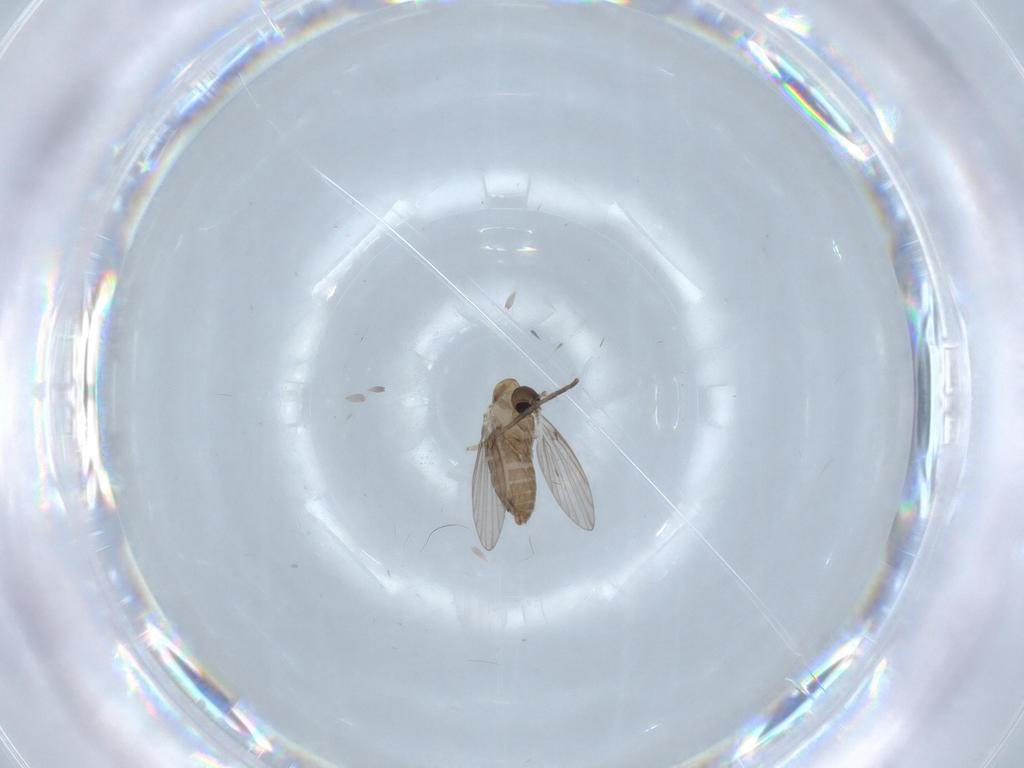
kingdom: Animalia
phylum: Arthropoda
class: Insecta
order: Diptera
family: Psychodidae
